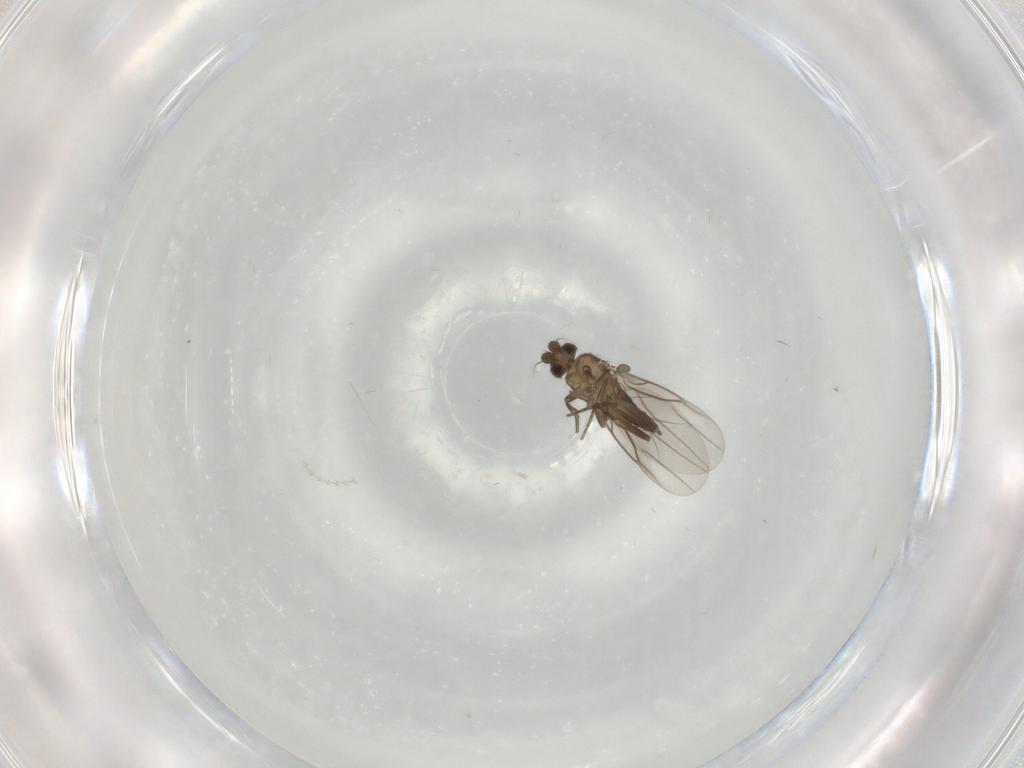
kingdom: Animalia
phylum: Arthropoda
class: Insecta
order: Diptera
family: Cecidomyiidae
